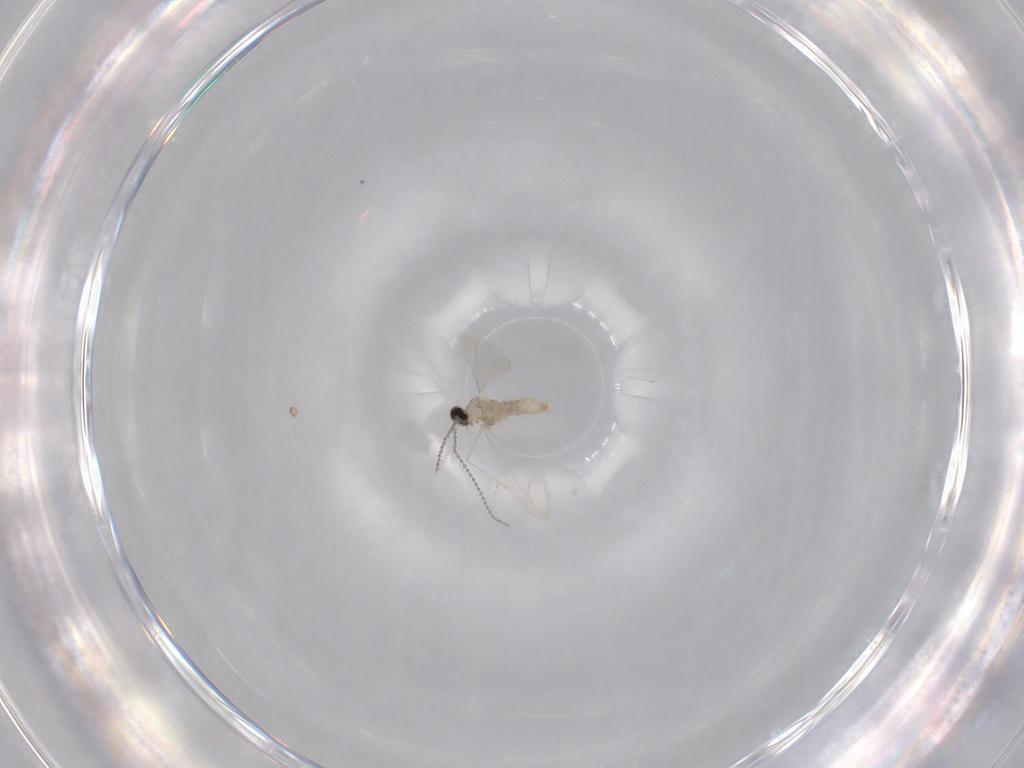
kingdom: Animalia
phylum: Arthropoda
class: Insecta
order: Diptera
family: Cecidomyiidae
